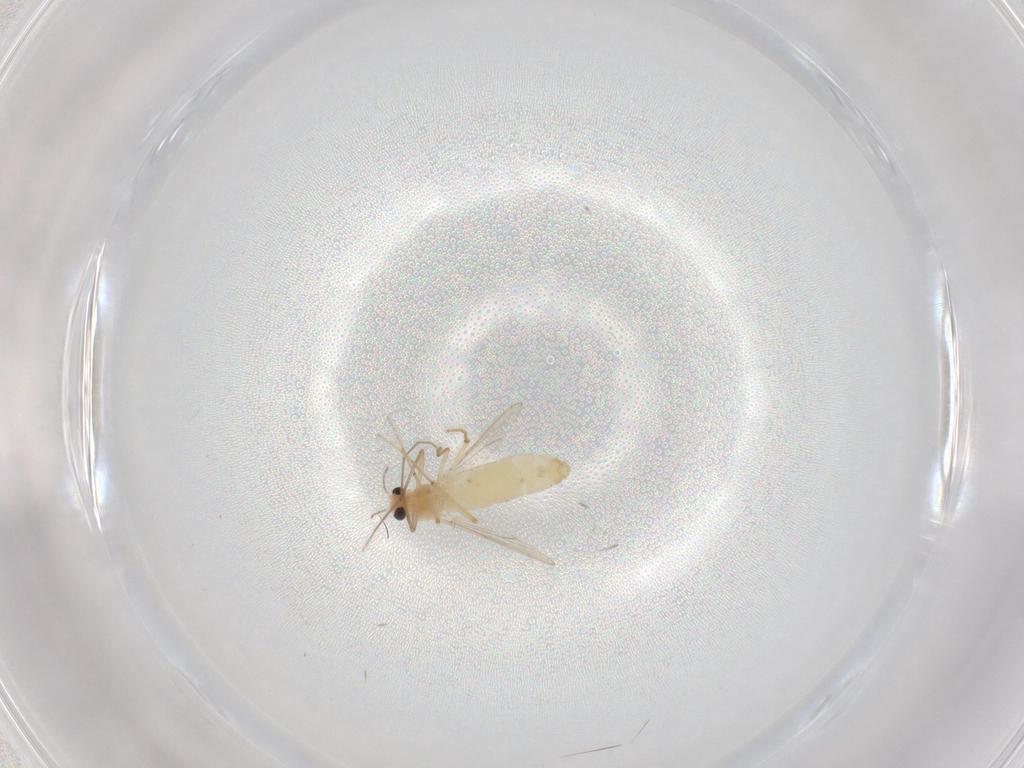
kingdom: Animalia
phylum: Arthropoda
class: Insecta
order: Diptera
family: Chironomidae
